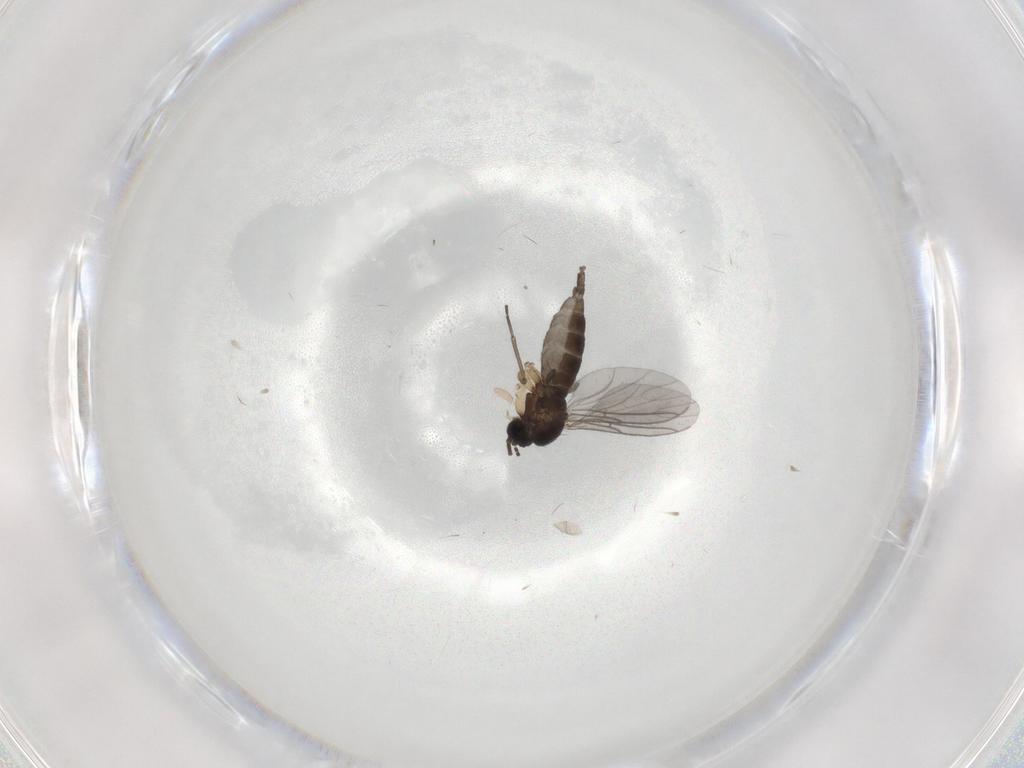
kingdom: Animalia
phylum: Arthropoda
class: Insecta
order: Diptera
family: Sciaridae
